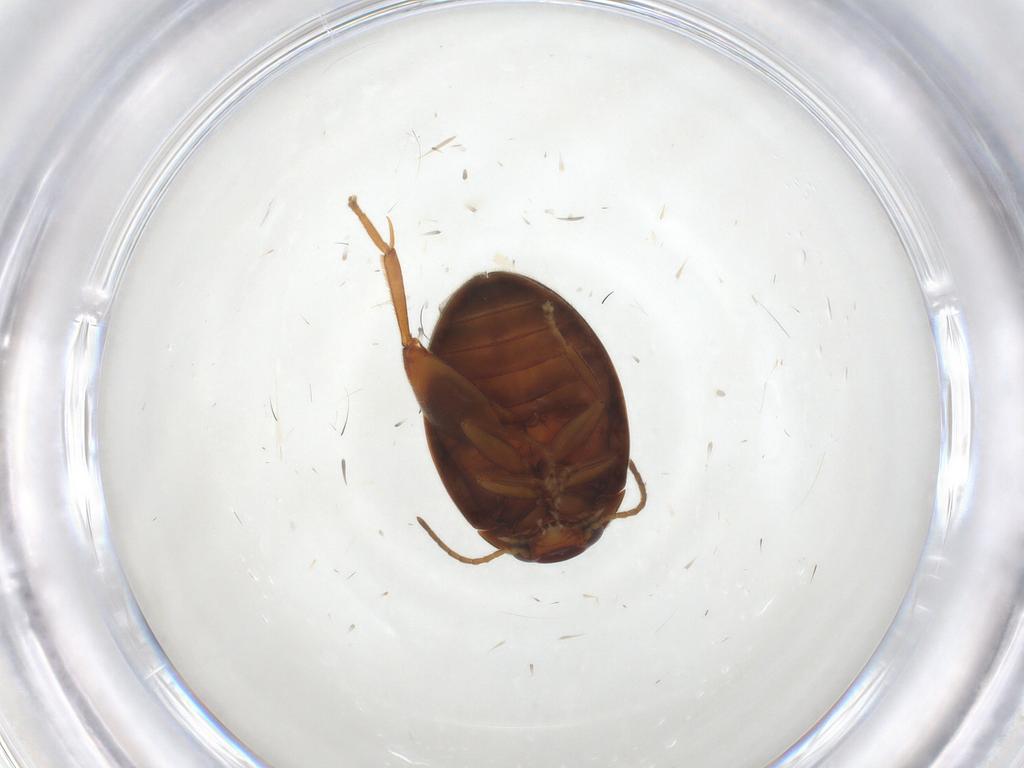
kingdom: Animalia
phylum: Arthropoda
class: Insecta
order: Coleoptera
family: Scirtidae
